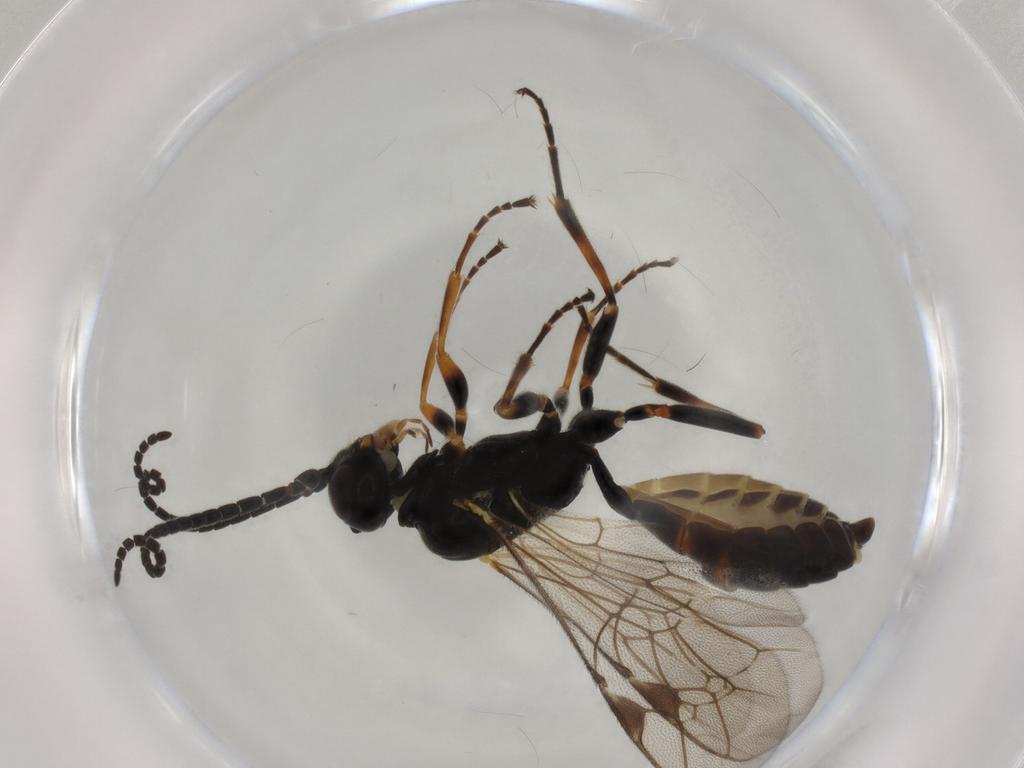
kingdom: Animalia
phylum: Arthropoda
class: Insecta
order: Hymenoptera
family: Ichneumonidae
